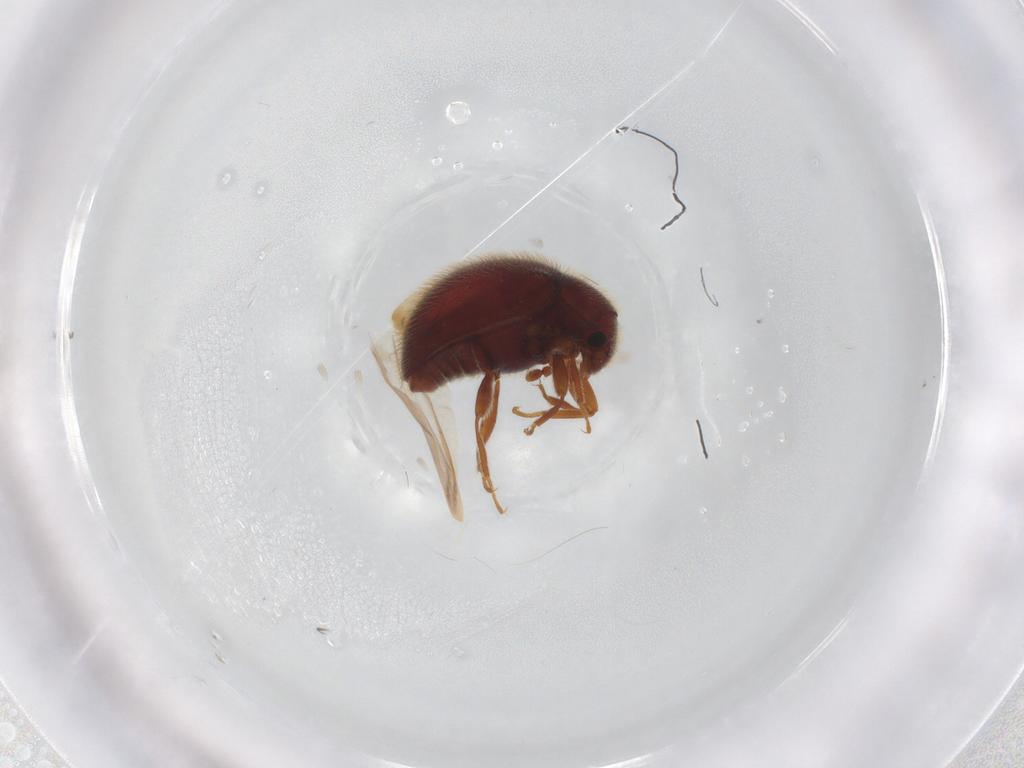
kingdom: Animalia
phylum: Arthropoda
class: Insecta
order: Coleoptera
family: Anamorphidae
